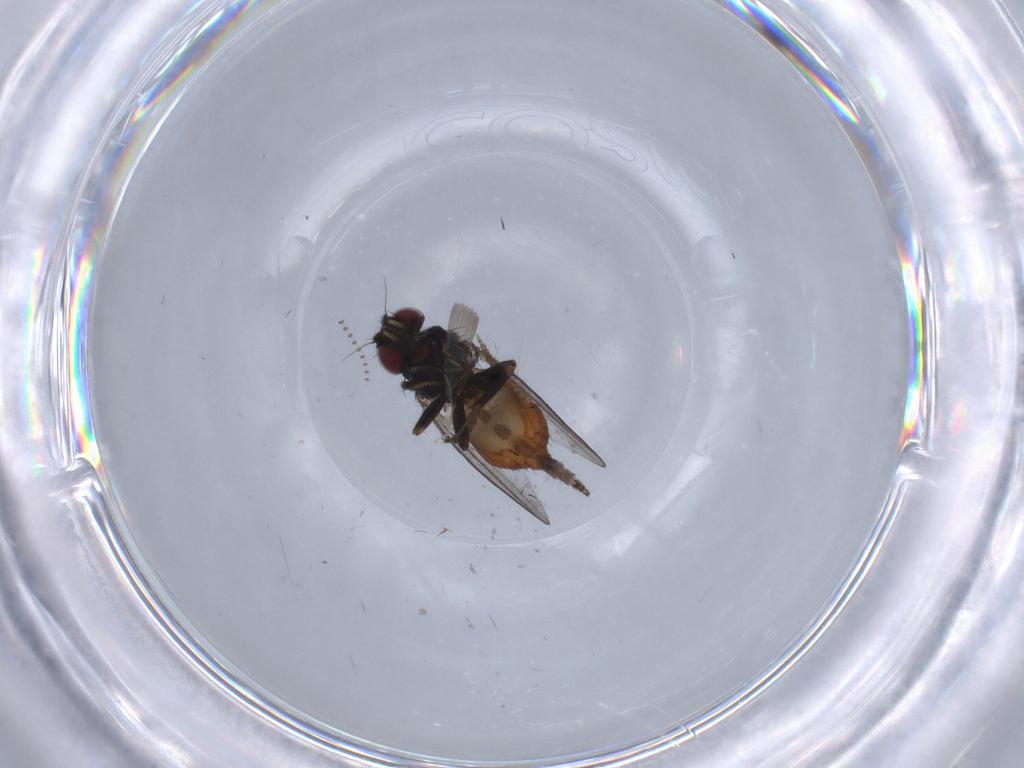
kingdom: Animalia
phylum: Arthropoda
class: Insecta
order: Diptera
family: Milichiidae
